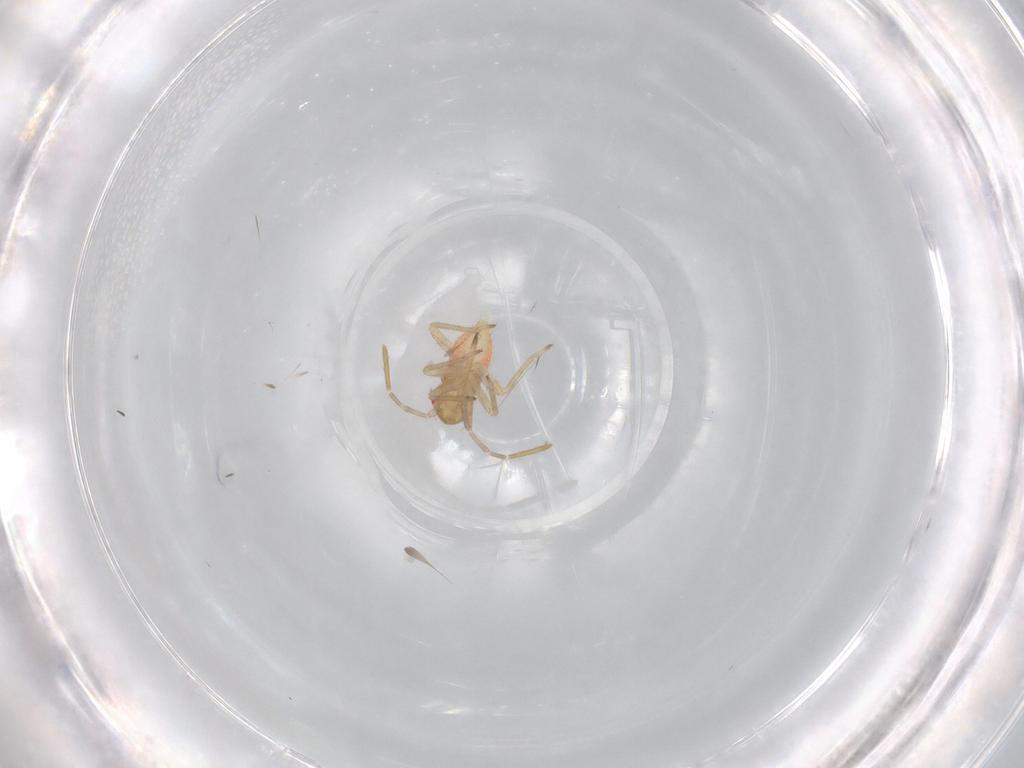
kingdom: Animalia
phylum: Arthropoda
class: Insecta
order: Hemiptera
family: Miridae
